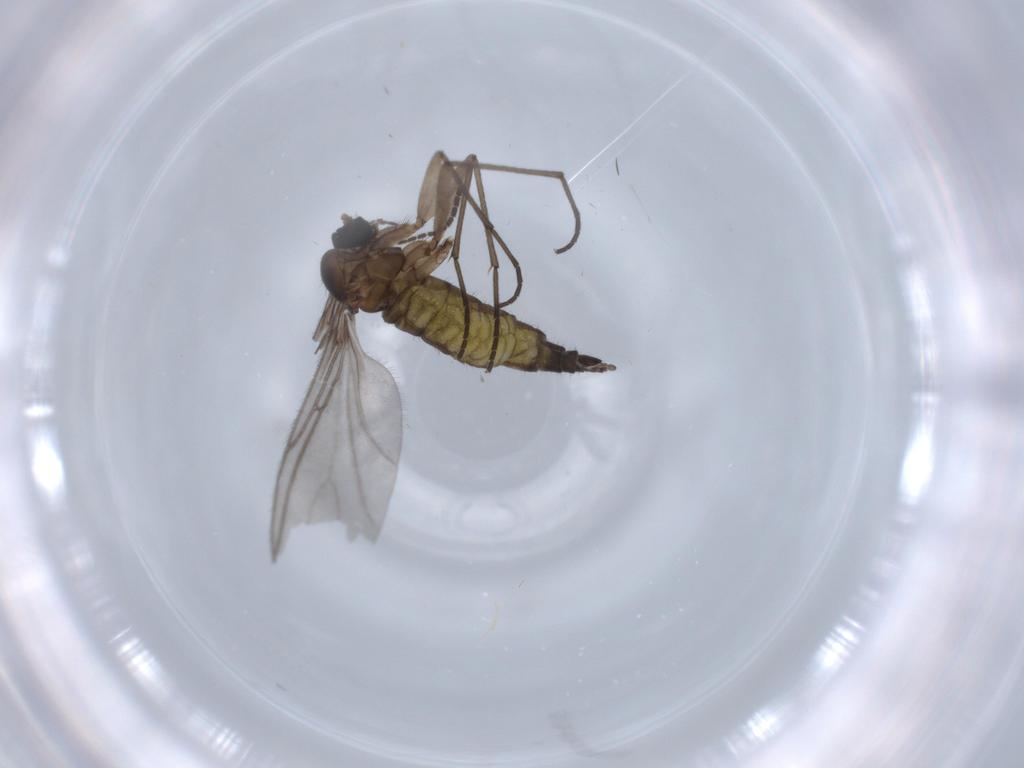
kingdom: Animalia
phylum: Arthropoda
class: Insecta
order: Diptera
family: Sciaridae
